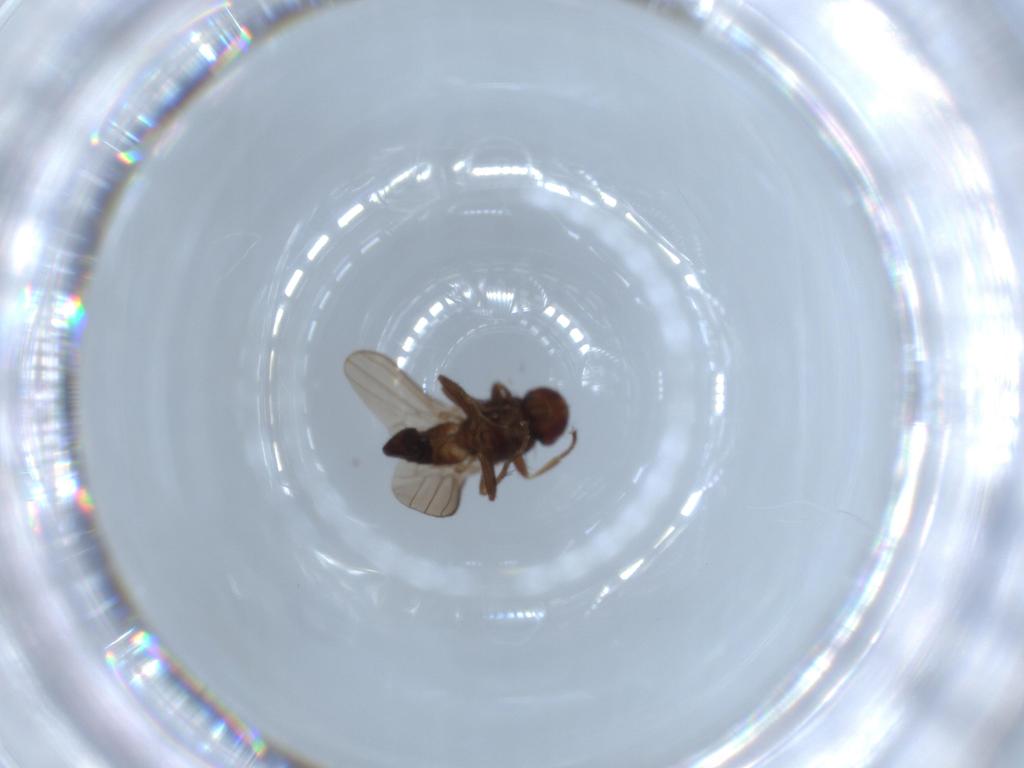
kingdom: Animalia
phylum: Arthropoda
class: Insecta
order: Diptera
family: Heleomyzidae
